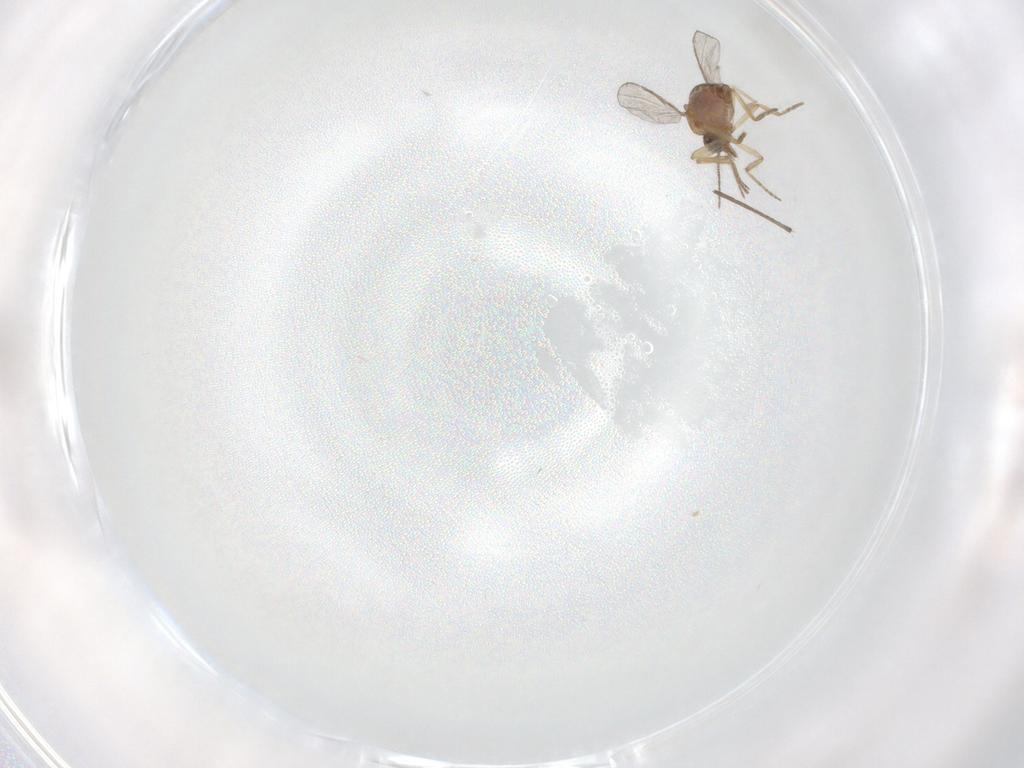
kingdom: Animalia
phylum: Arthropoda
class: Insecta
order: Diptera
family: Chironomidae
